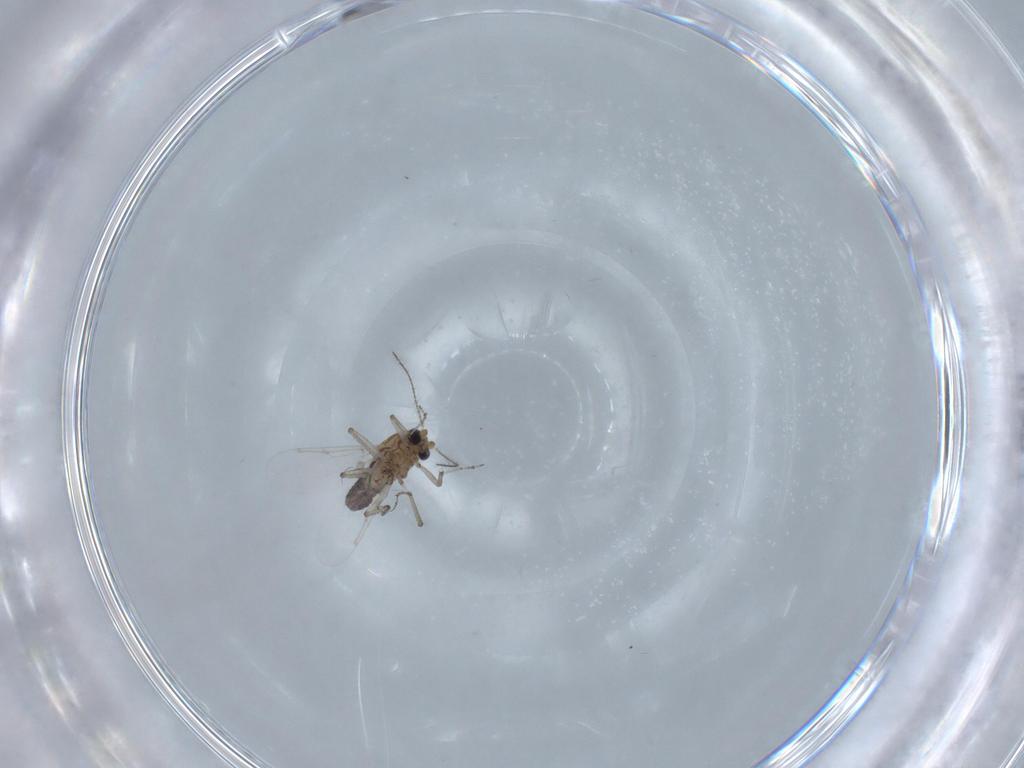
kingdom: Animalia
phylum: Arthropoda
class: Insecta
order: Diptera
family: Ceratopogonidae
